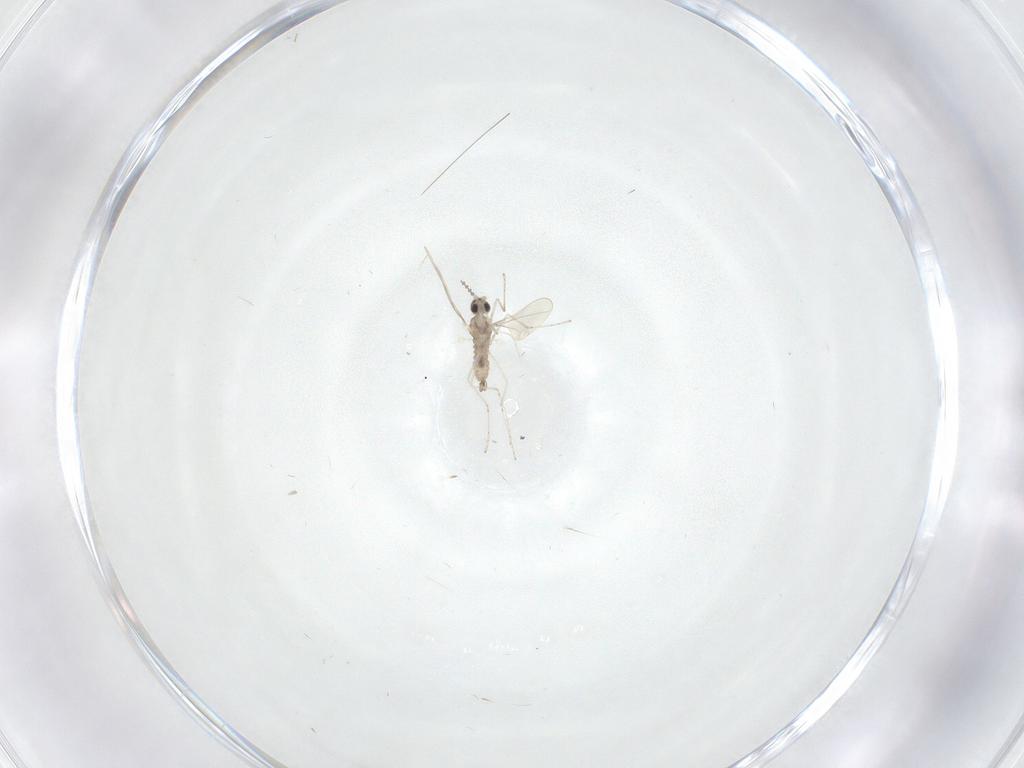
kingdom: Animalia
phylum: Arthropoda
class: Insecta
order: Diptera
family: Cecidomyiidae
